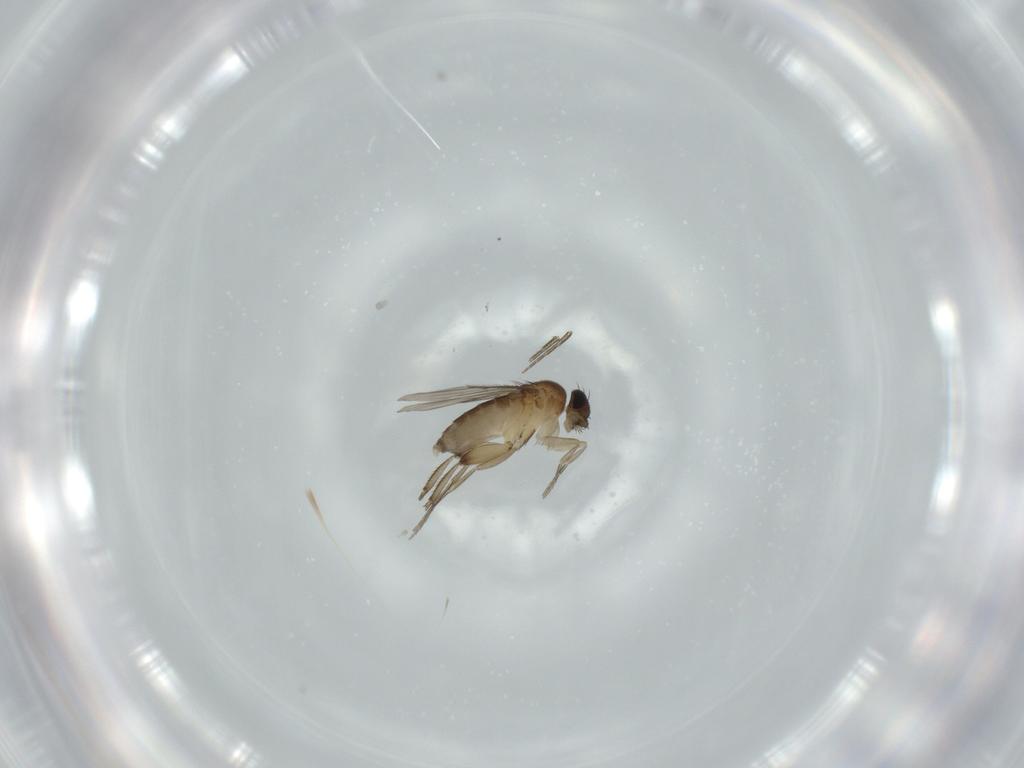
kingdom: Animalia
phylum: Arthropoda
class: Insecta
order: Diptera
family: Phoridae
